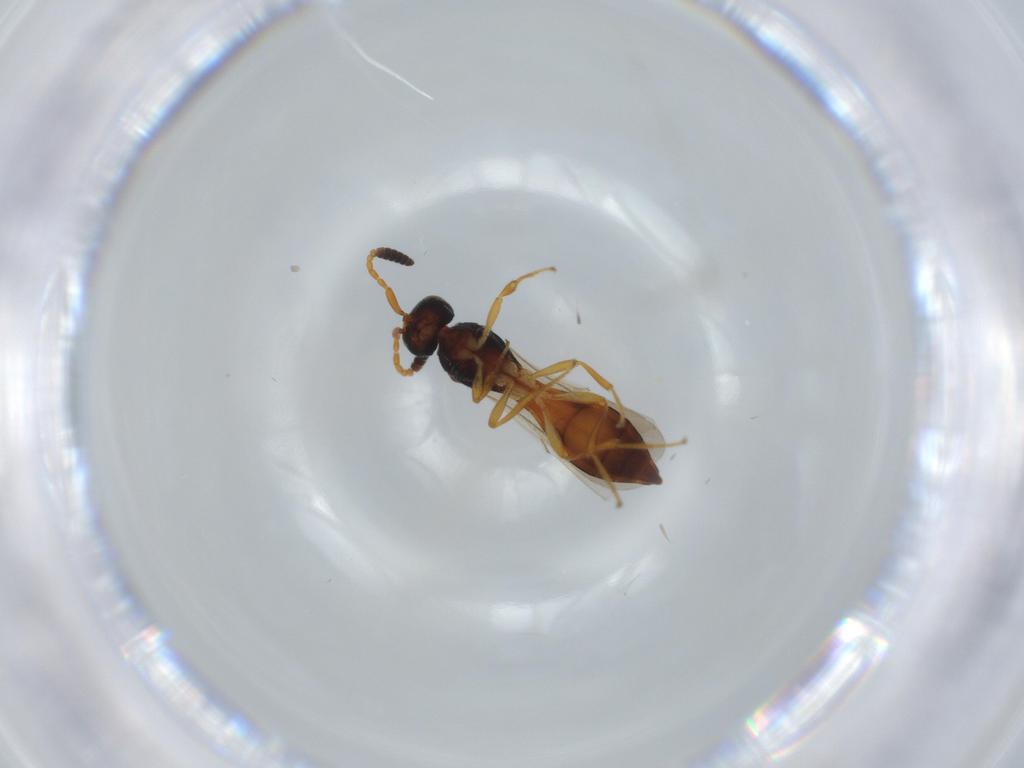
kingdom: Animalia
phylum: Arthropoda
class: Insecta
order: Hymenoptera
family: Scelionidae
